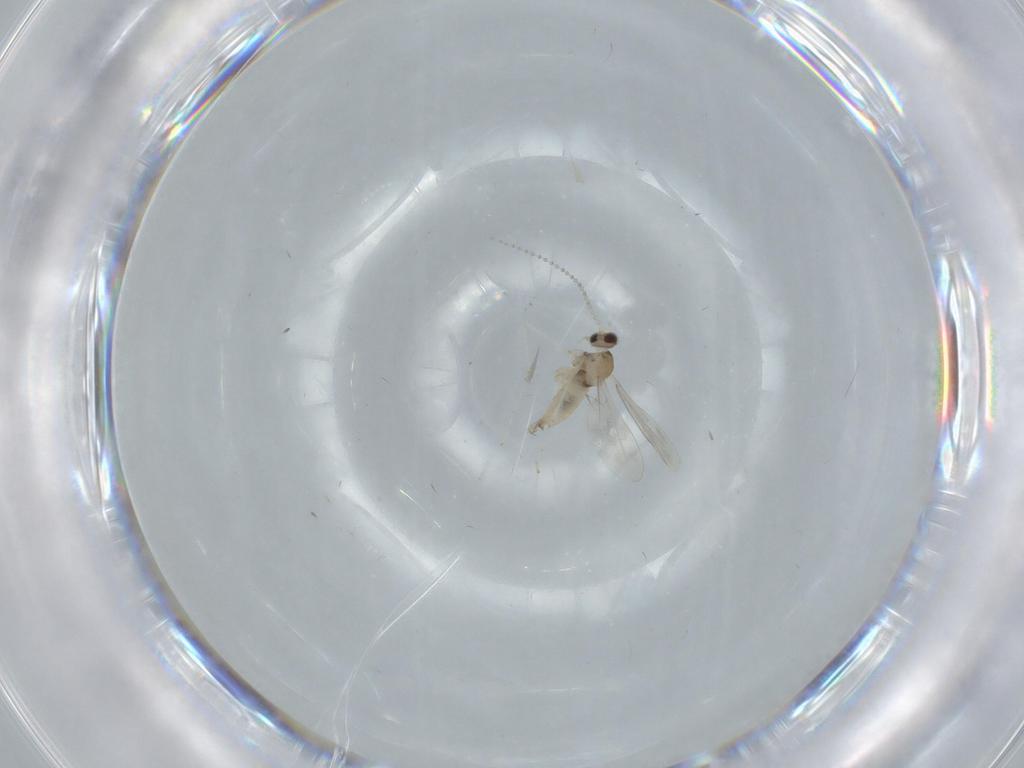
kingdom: Animalia
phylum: Arthropoda
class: Insecta
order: Diptera
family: Cecidomyiidae
